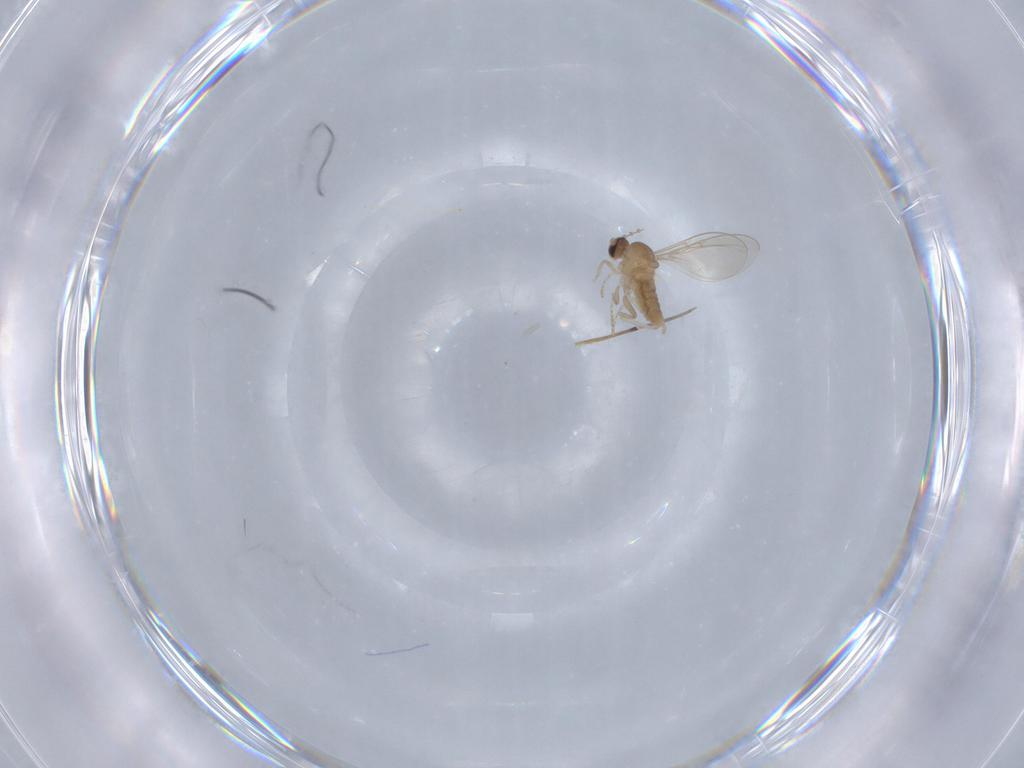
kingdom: Animalia
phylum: Arthropoda
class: Insecta
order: Diptera
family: Cecidomyiidae
